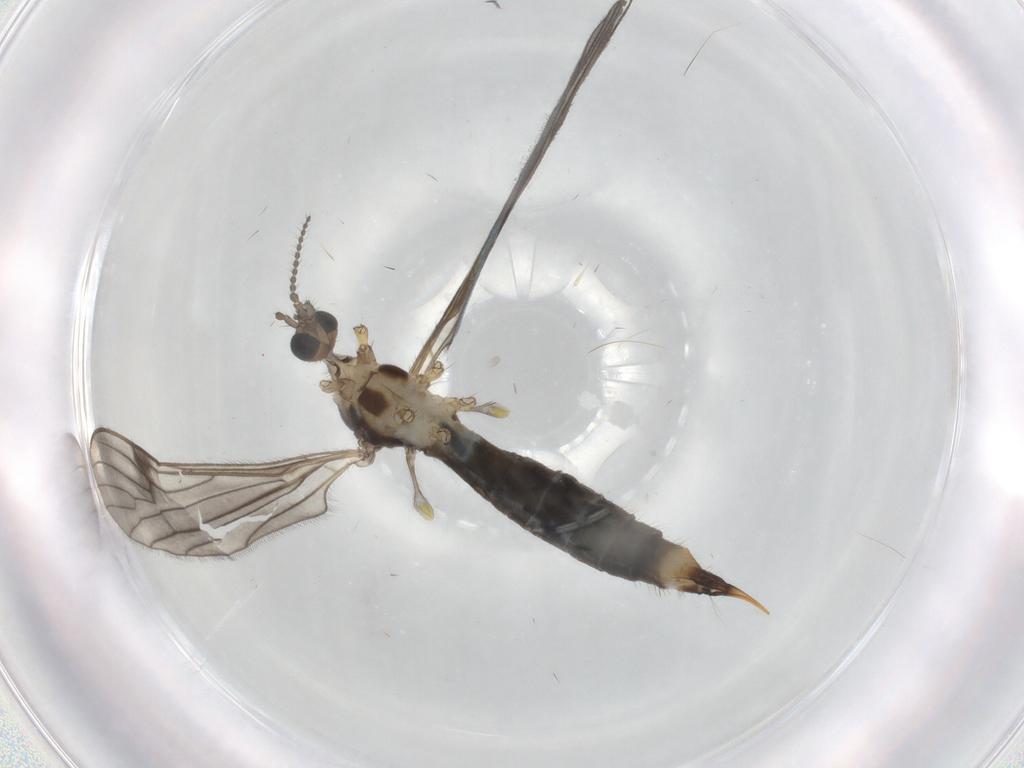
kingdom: Animalia
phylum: Arthropoda
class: Insecta
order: Diptera
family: Limoniidae
